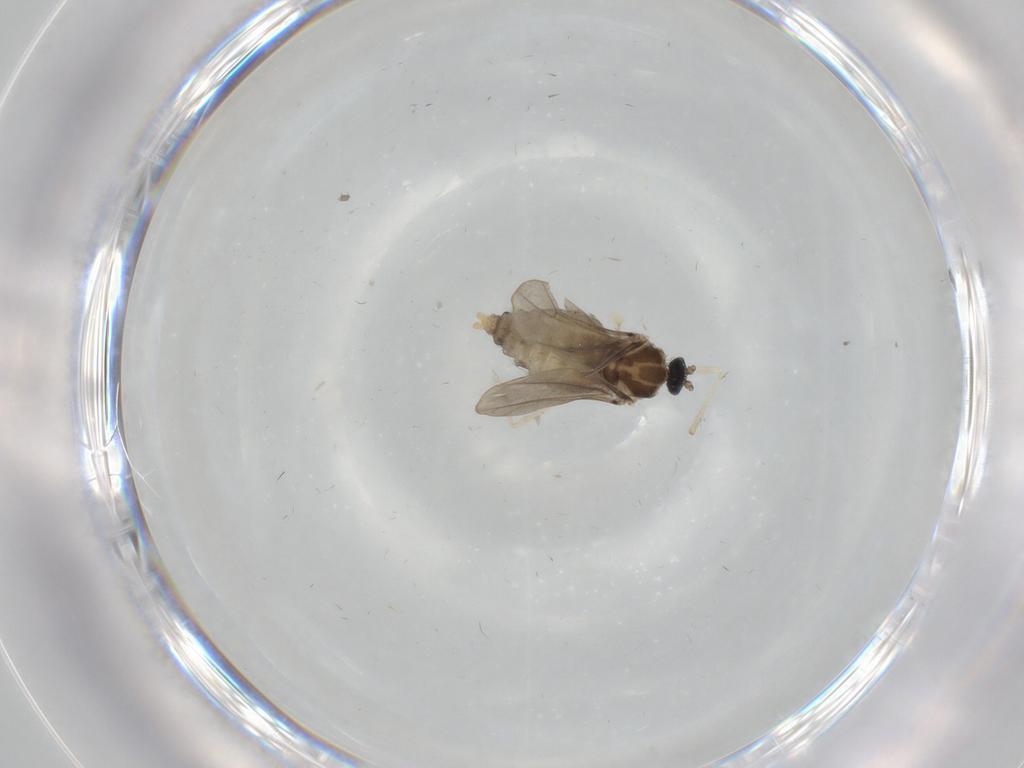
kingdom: Animalia
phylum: Arthropoda
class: Insecta
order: Diptera
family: Cecidomyiidae
